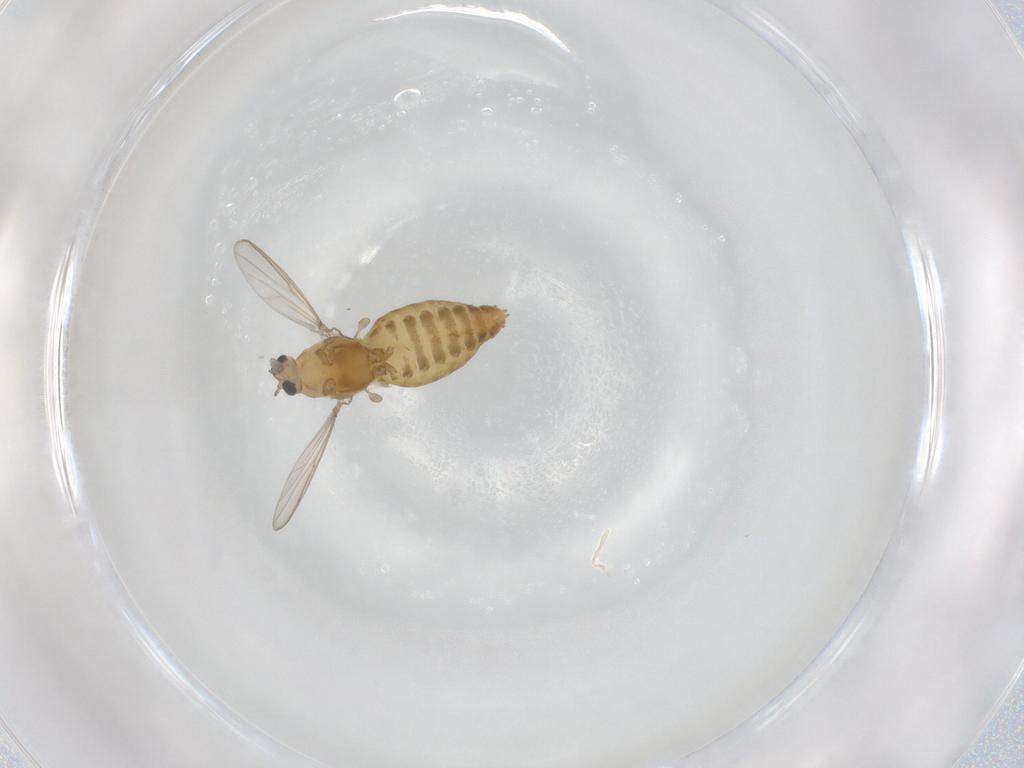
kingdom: Animalia
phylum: Arthropoda
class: Insecta
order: Diptera
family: Chironomidae
